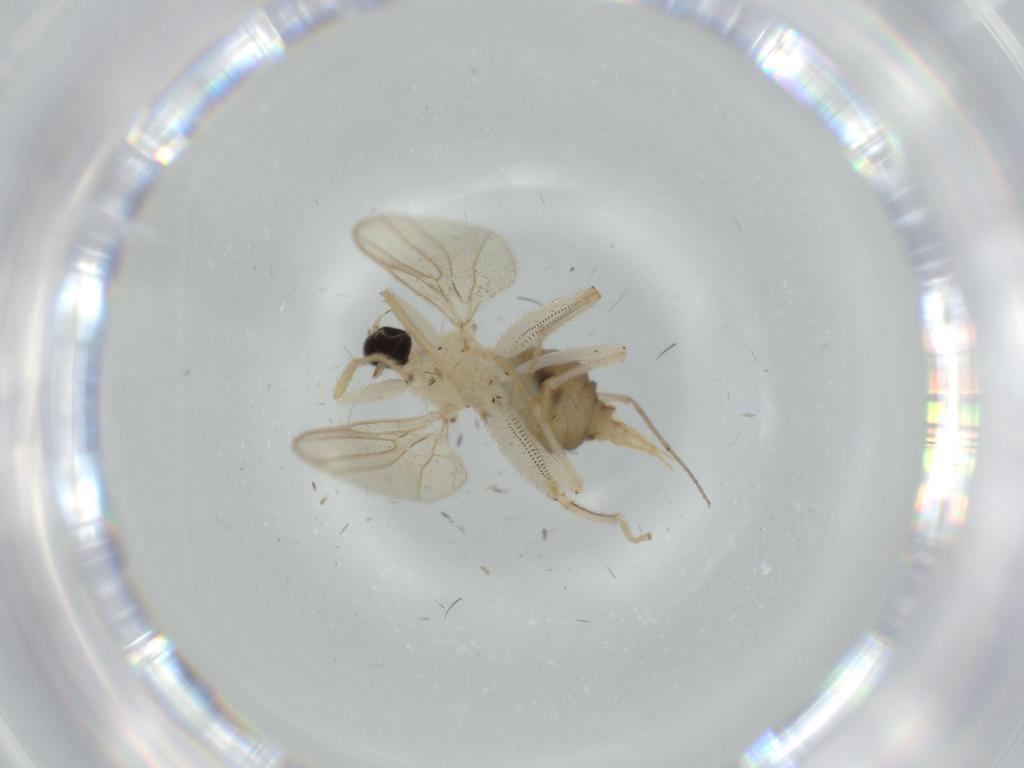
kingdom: Animalia
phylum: Arthropoda
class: Insecta
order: Diptera
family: Hybotidae
